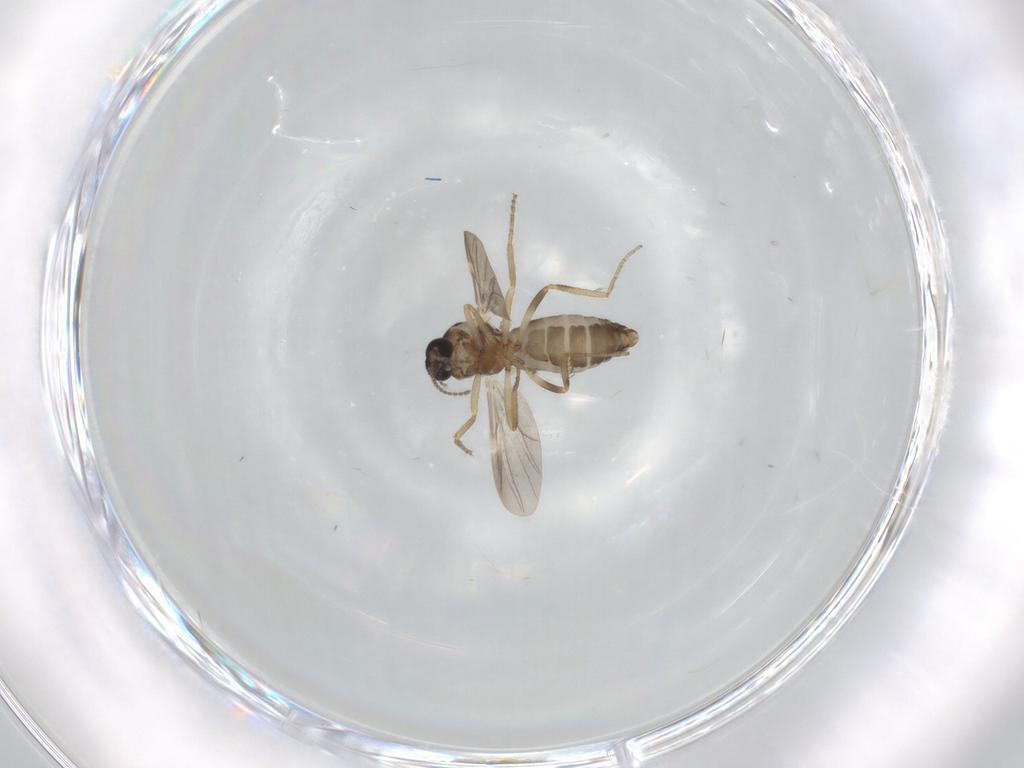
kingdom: Animalia
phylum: Arthropoda
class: Insecta
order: Diptera
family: Ceratopogonidae
